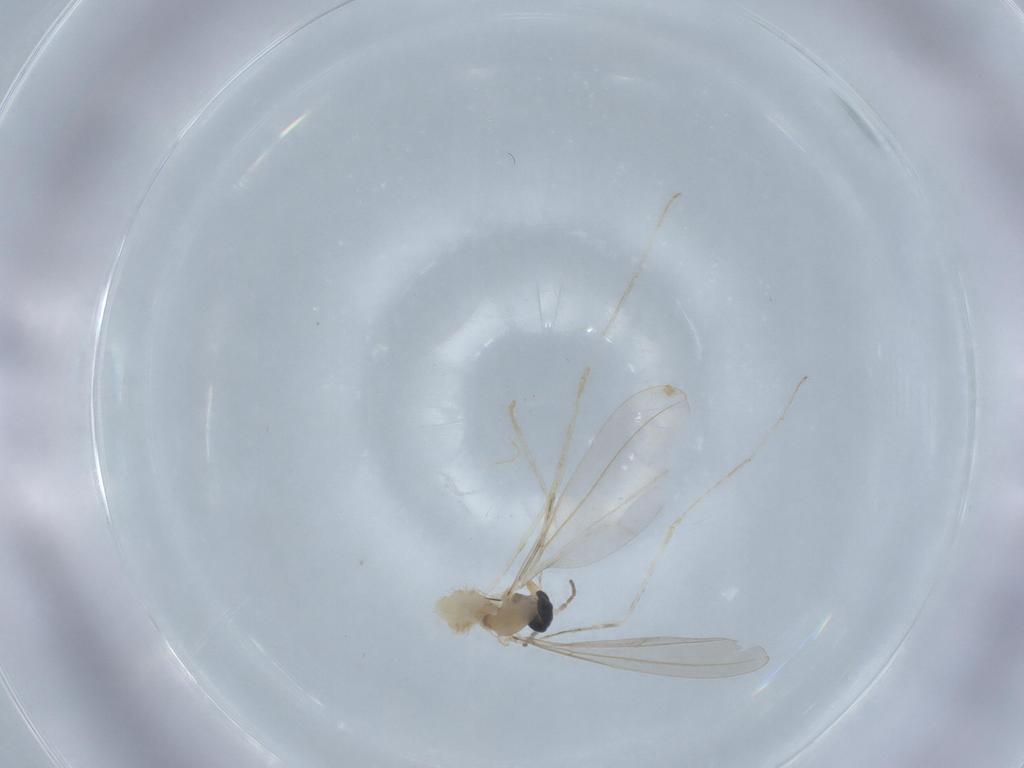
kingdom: Animalia
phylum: Arthropoda
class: Insecta
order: Diptera
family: Cecidomyiidae
